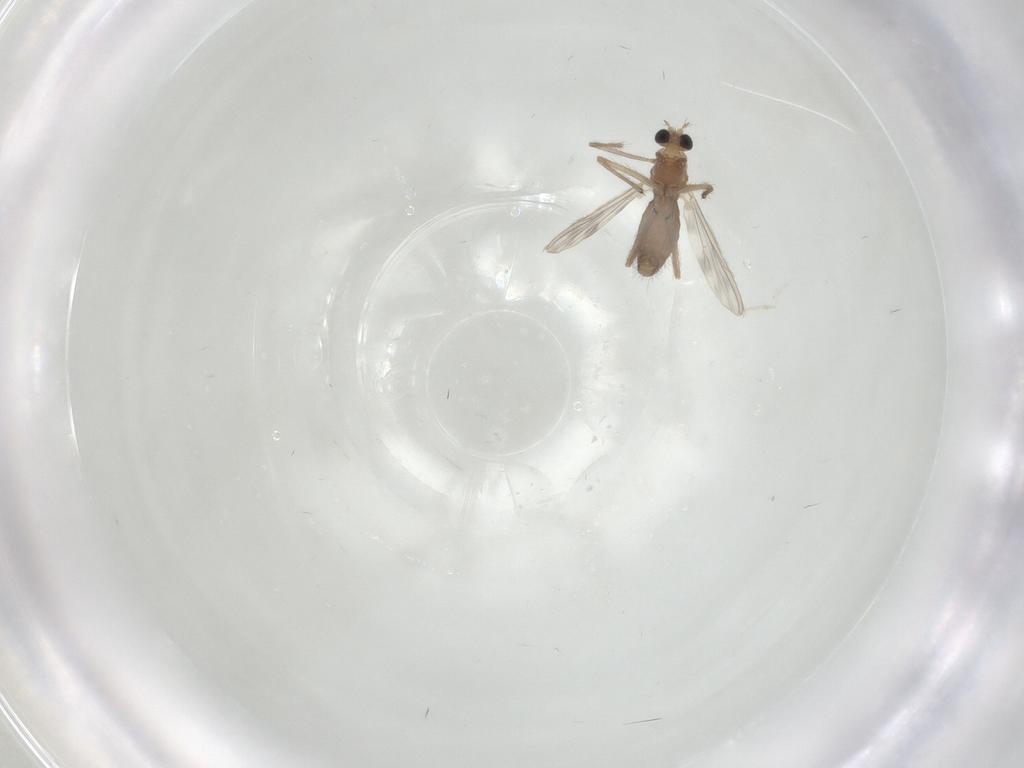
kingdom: Animalia
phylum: Arthropoda
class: Insecta
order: Diptera
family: Chironomidae
